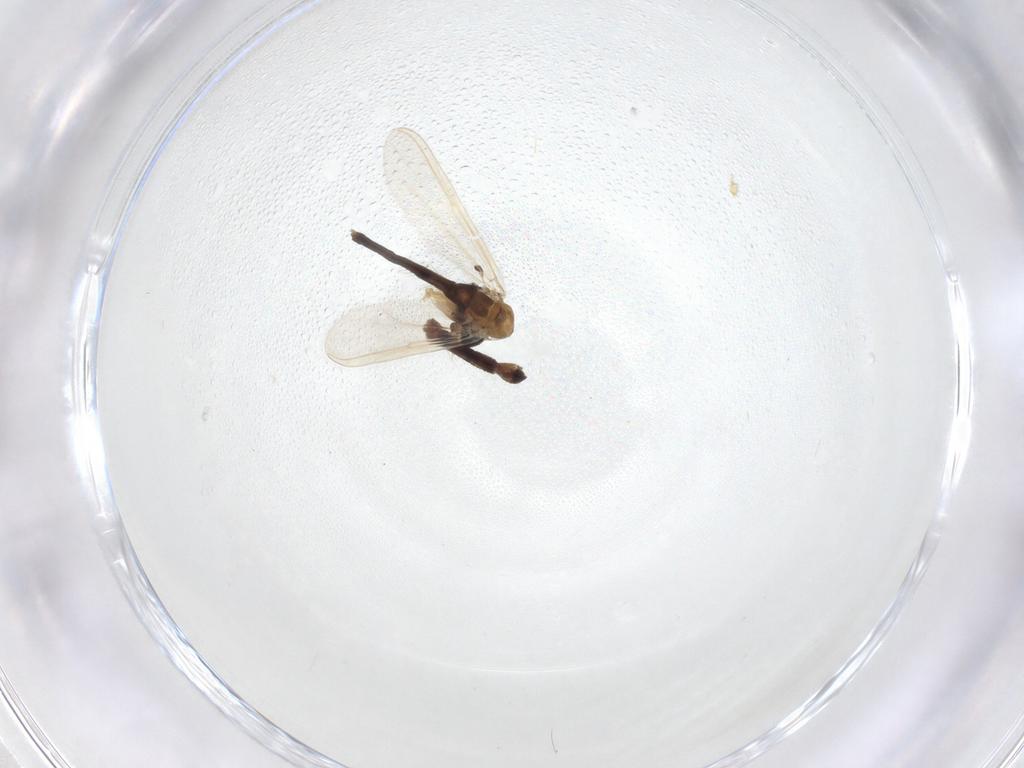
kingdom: Animalia
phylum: Arthropoda
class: Insecta
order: Diptera
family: Chironomidae
